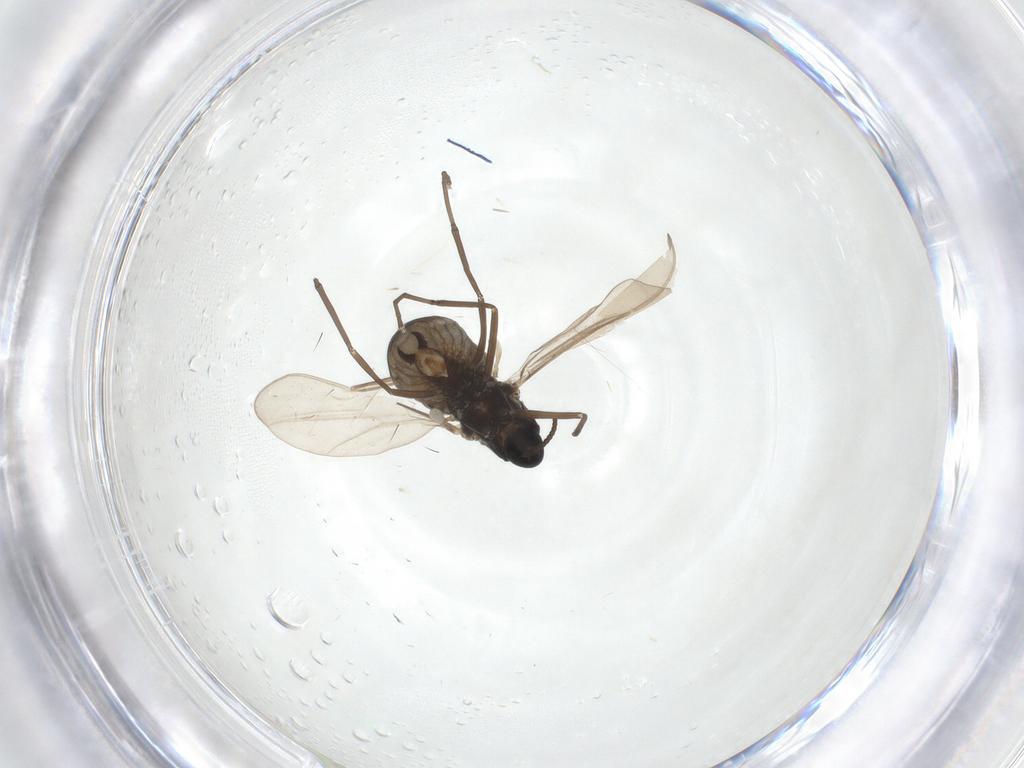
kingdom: Animalia
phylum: Arthropoda
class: Insecta
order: Diptera
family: Cecidomyiidae
